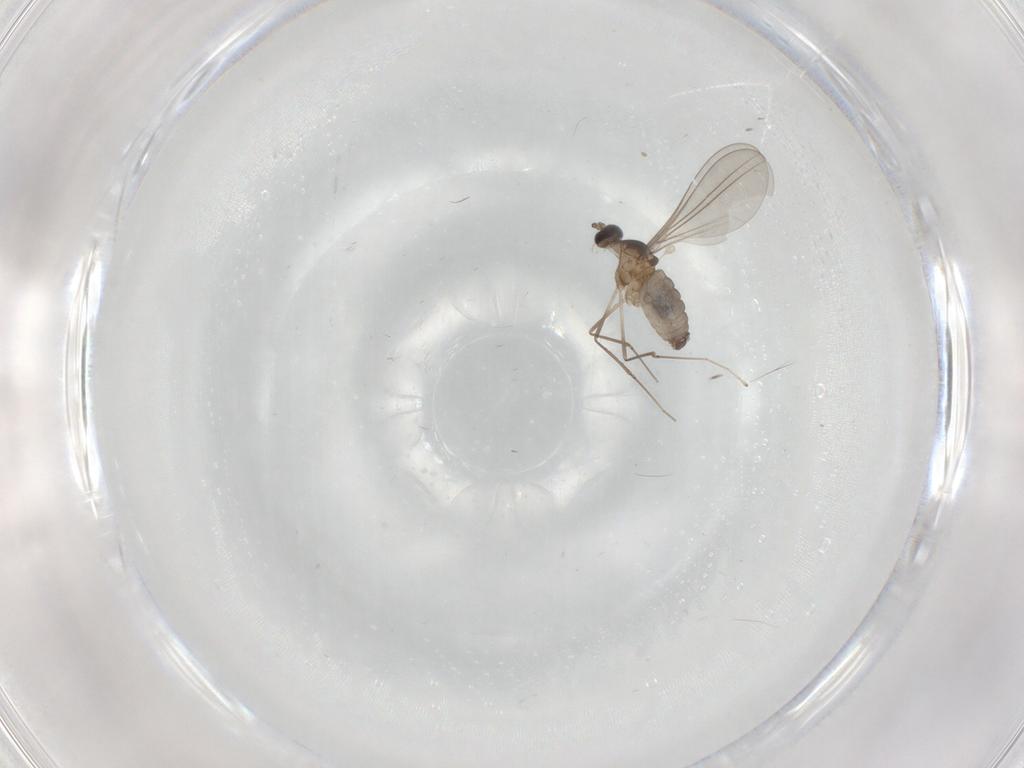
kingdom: Animalia
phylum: Arthropoda
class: Insecta
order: Diptera
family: Cecidomyiidae
